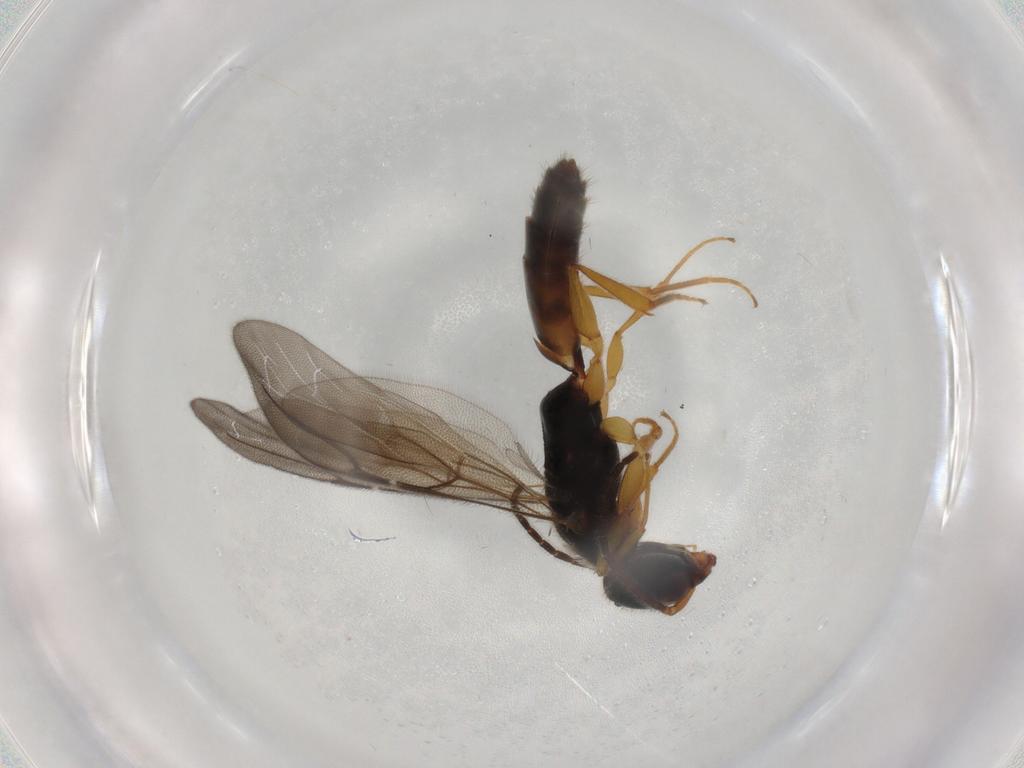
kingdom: Animalia
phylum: Arthropoda
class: Insecta
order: Hymenoptera
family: Bethylidae
